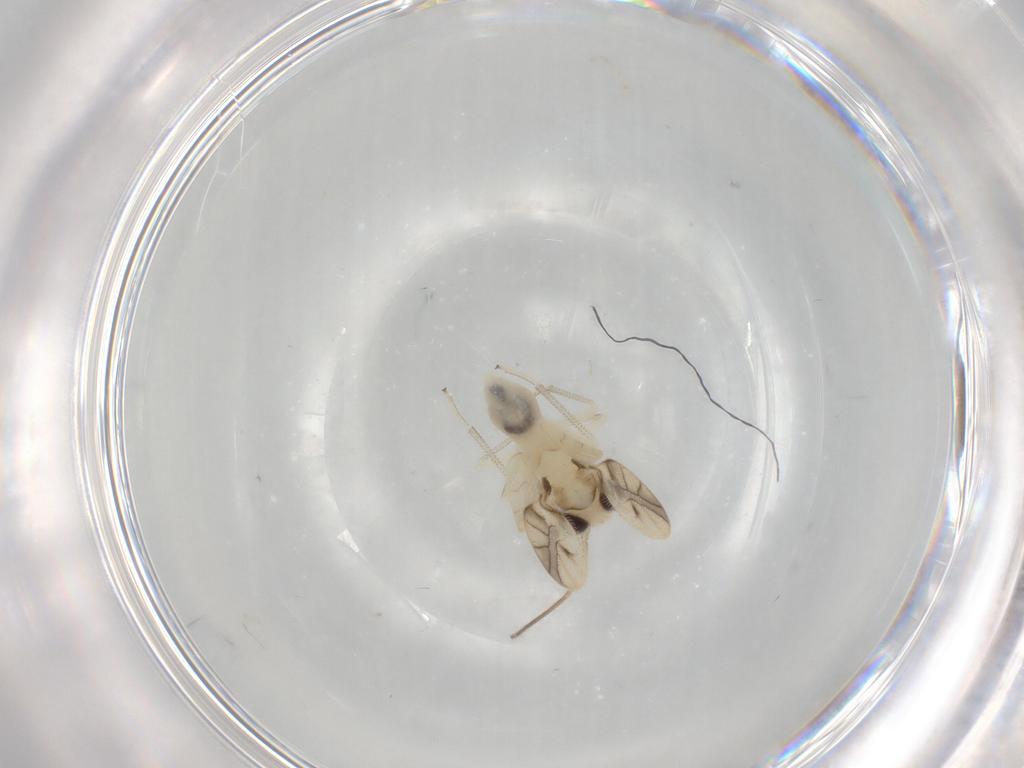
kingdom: Animalia
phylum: Arthropoda
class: Insecta
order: Psocodea
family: Caeciliusidae
